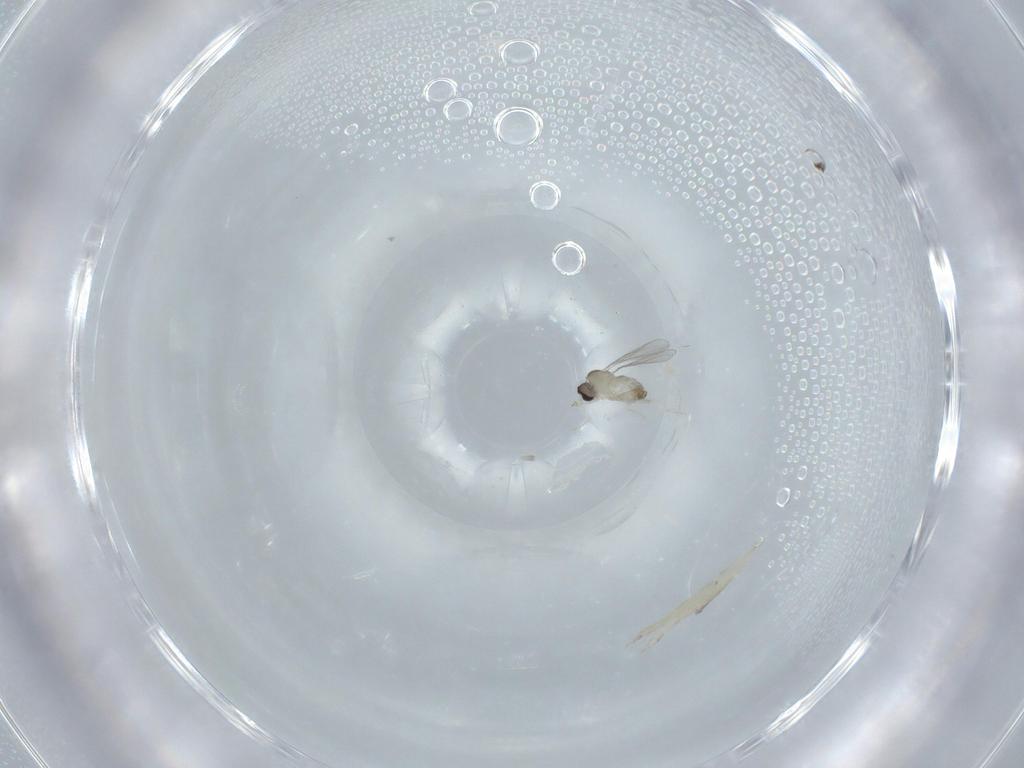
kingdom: Animalia
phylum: Arthropoda
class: Insecta
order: Diptera
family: Cecidomyiidae
